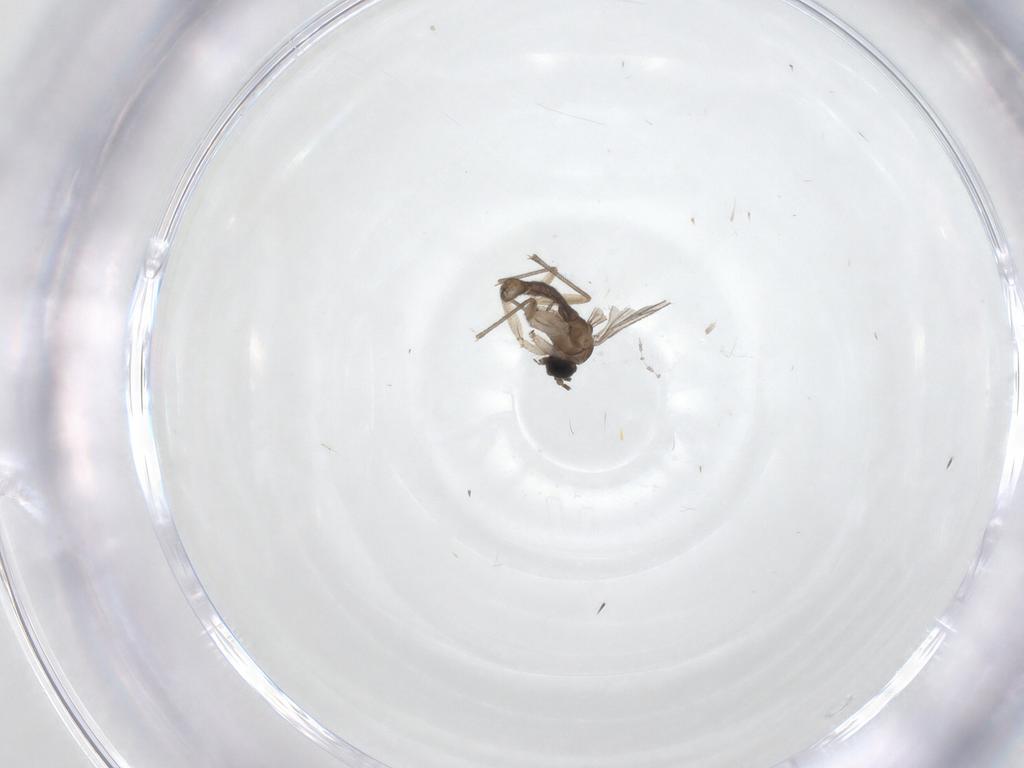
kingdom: Animalia
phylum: Arthropoda
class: Insecta
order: Diptera
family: Sciaridae
